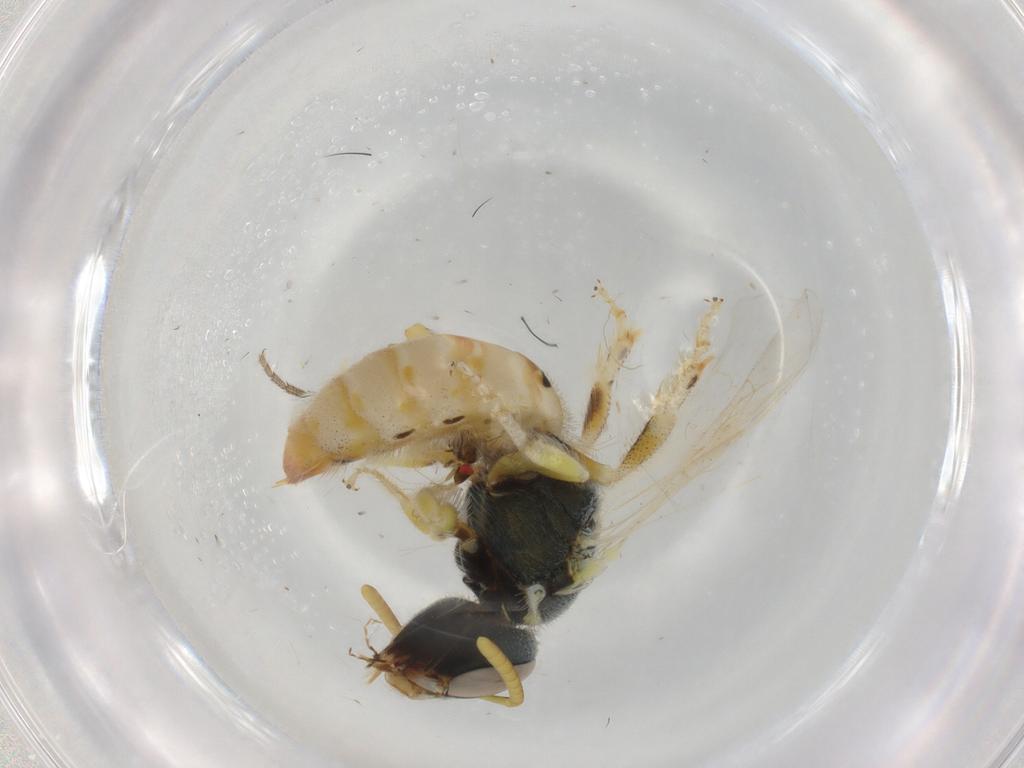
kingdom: Animalia
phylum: Arthropoda
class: Insecta
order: Hymenoptera
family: Halictidae
